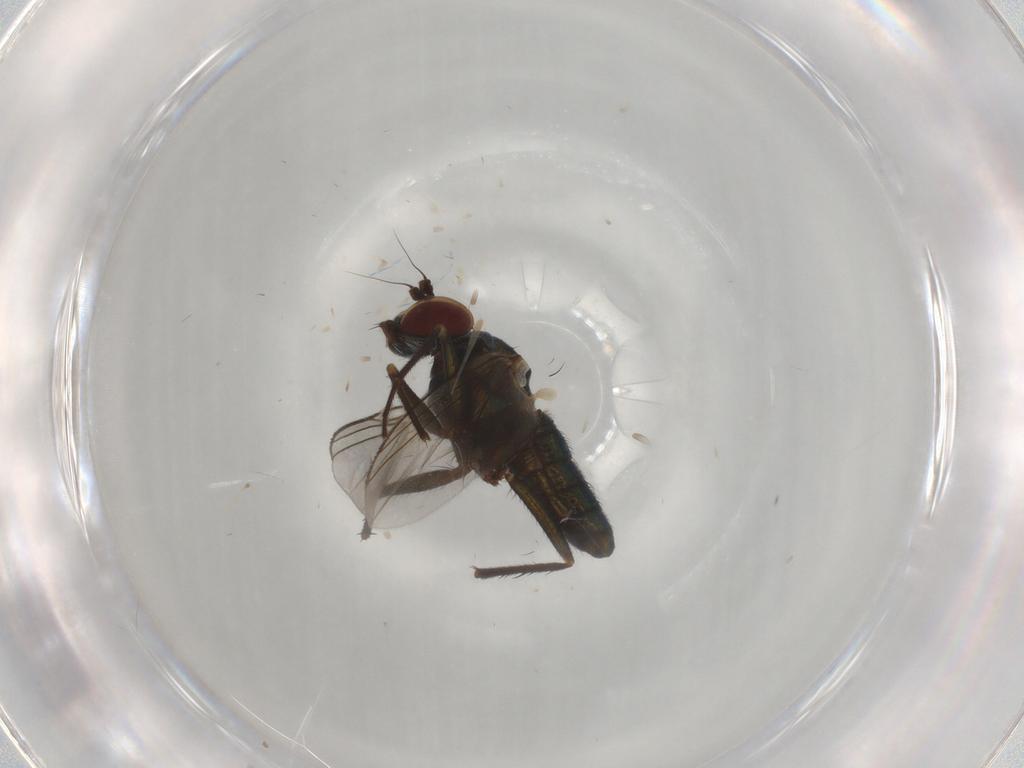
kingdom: Animalia
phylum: Arthropoda
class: Insecta
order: Diptera
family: Dolichopodidae
